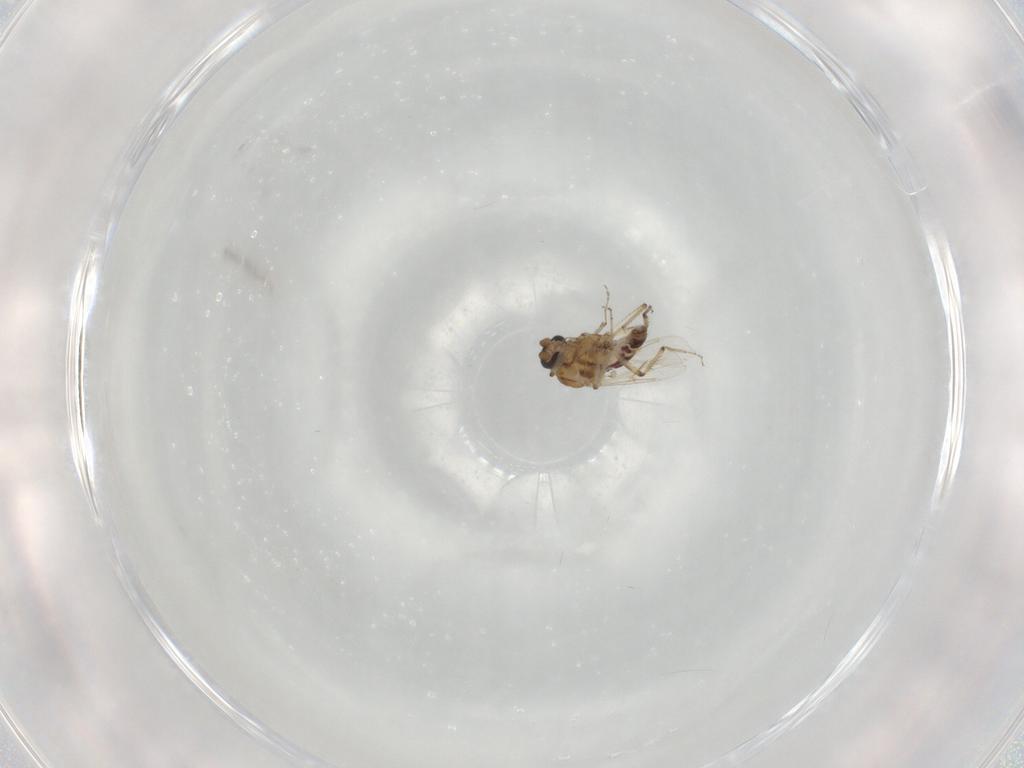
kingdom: Animalia
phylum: Arthropoda
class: Insecta
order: Diptera
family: Ceratopogonidae
